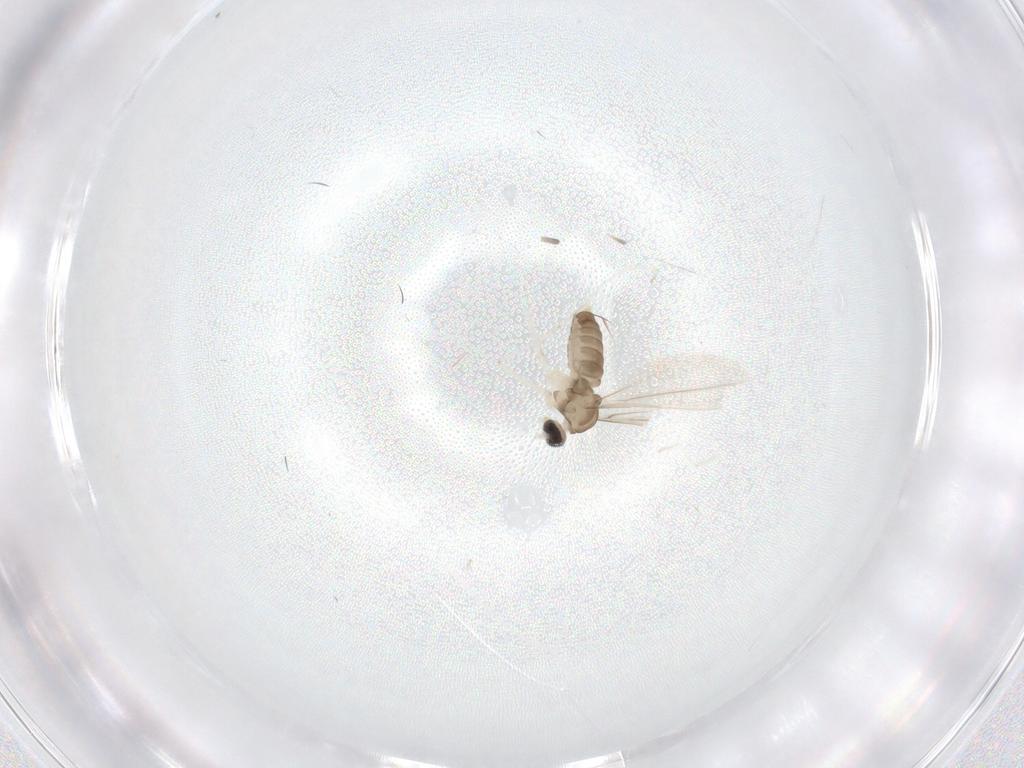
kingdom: Animalia
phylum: Arthropoda
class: Insecta
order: Diptera
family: Cecidomyiidae
